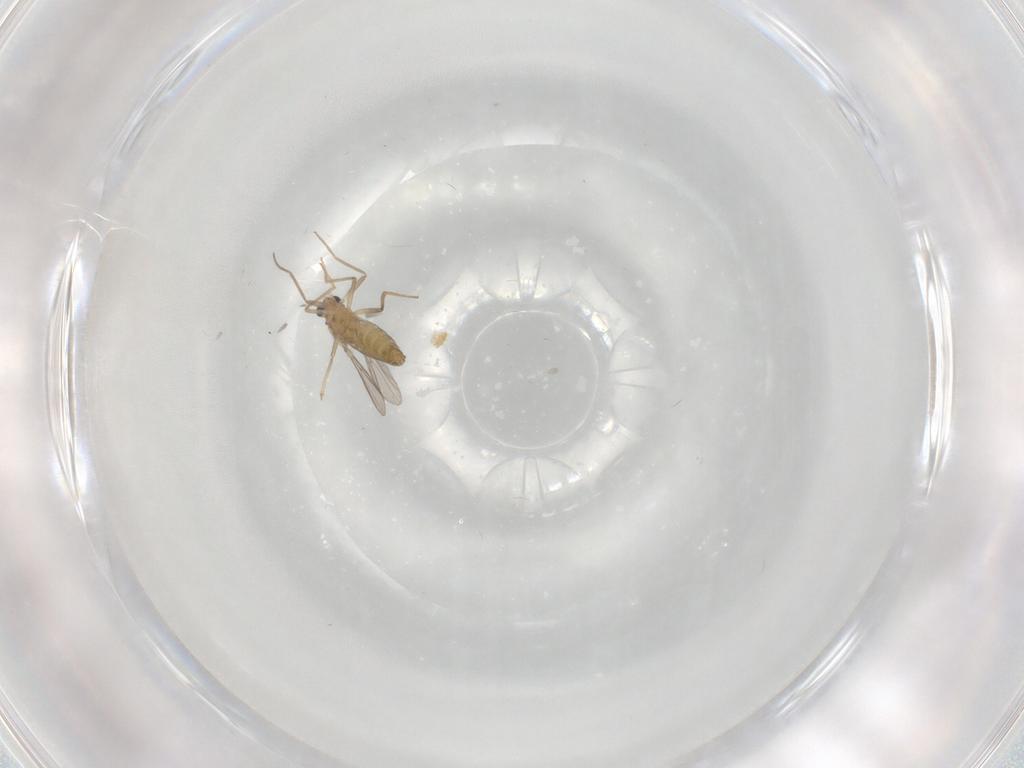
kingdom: Animalia
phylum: Arthropoda
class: Insecta
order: Diptera
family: Chironomidae
